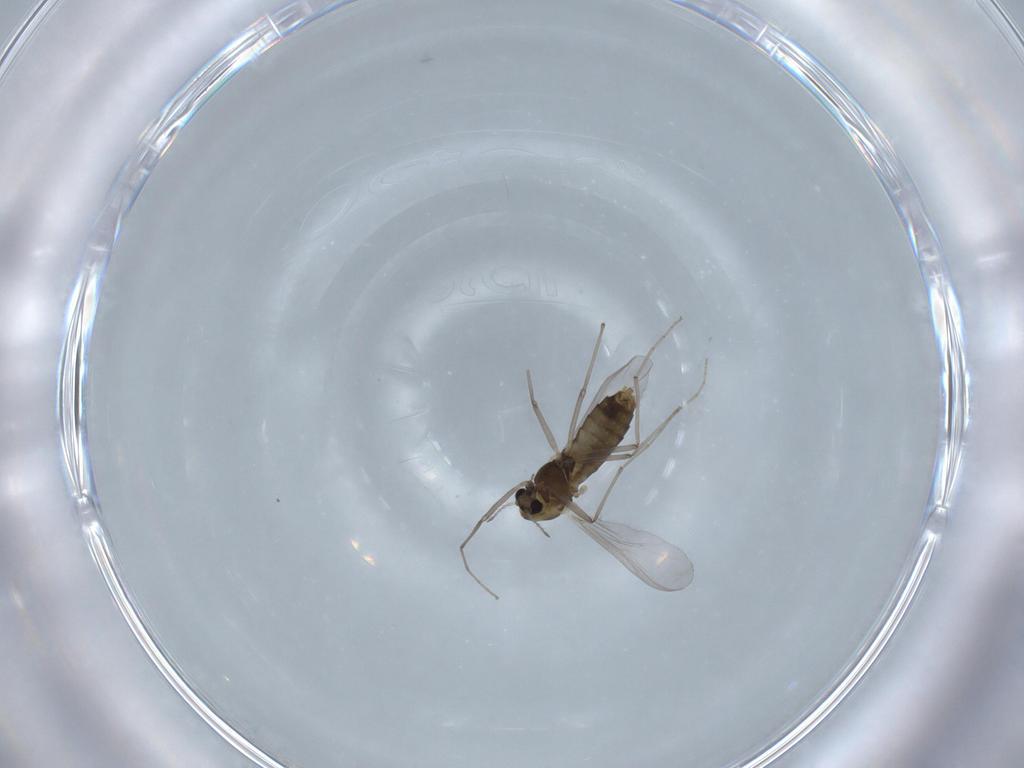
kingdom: Animalia
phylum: Arthropoda
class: Insecta
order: Diptera
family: Chironomidae
